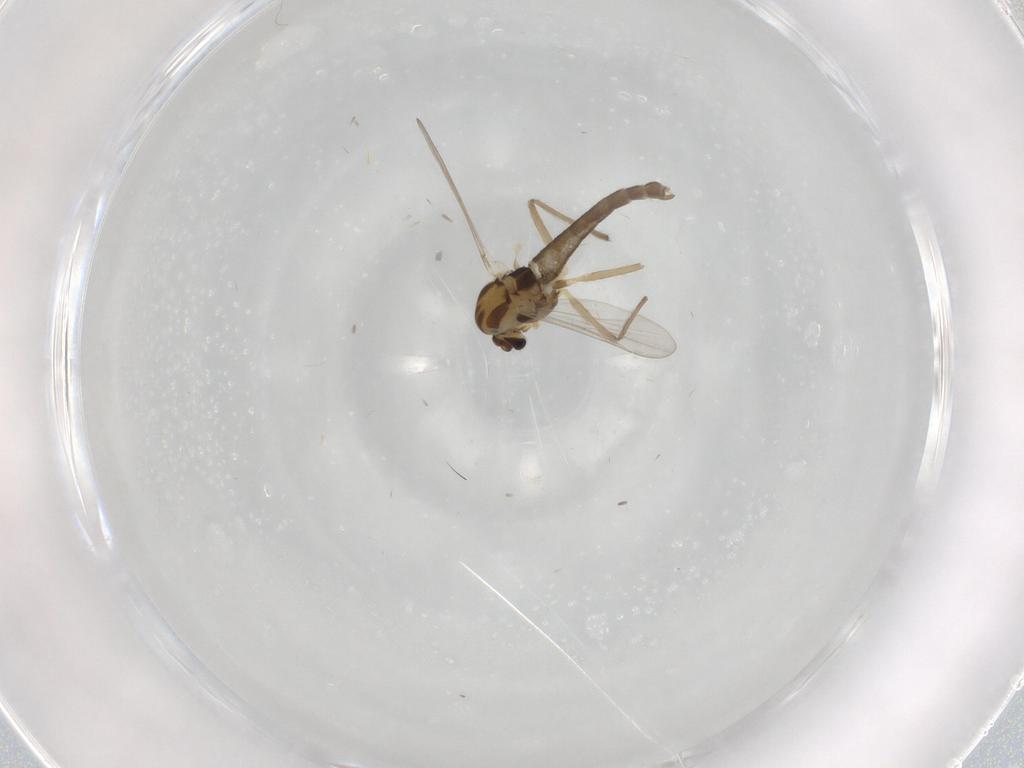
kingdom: Animalia
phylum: Arthropoda
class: Insecta
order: Diptera
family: Chironomidae
